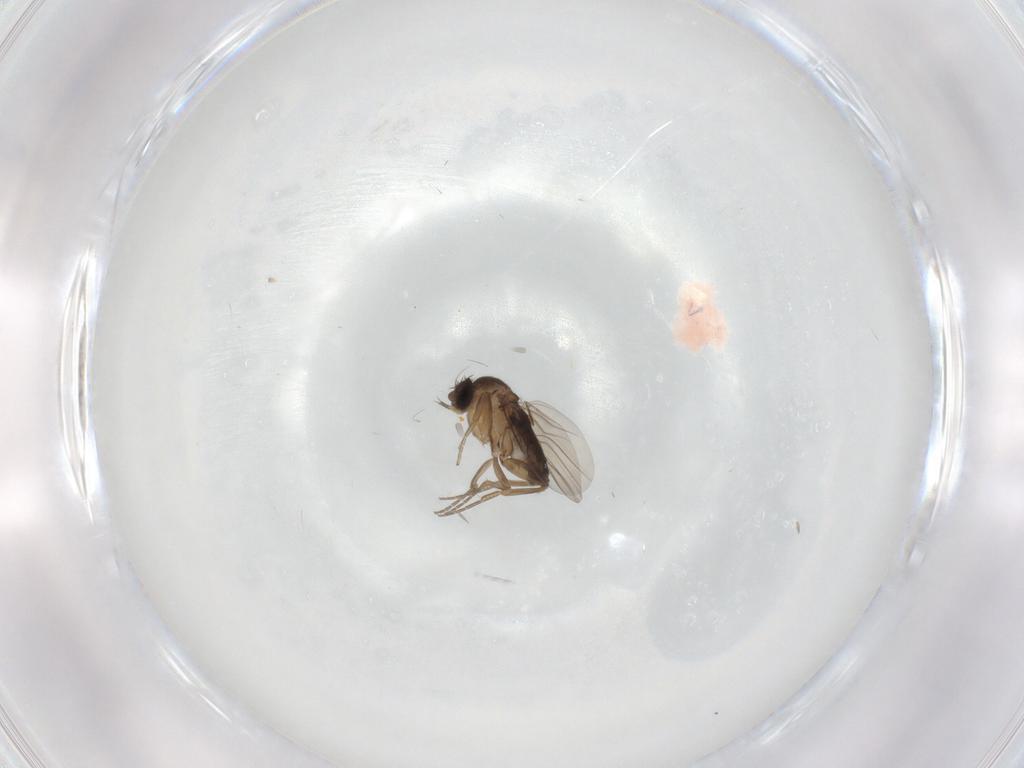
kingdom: Animalia
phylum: Arthropoda
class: Insecta
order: Diptera
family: Phoridae
